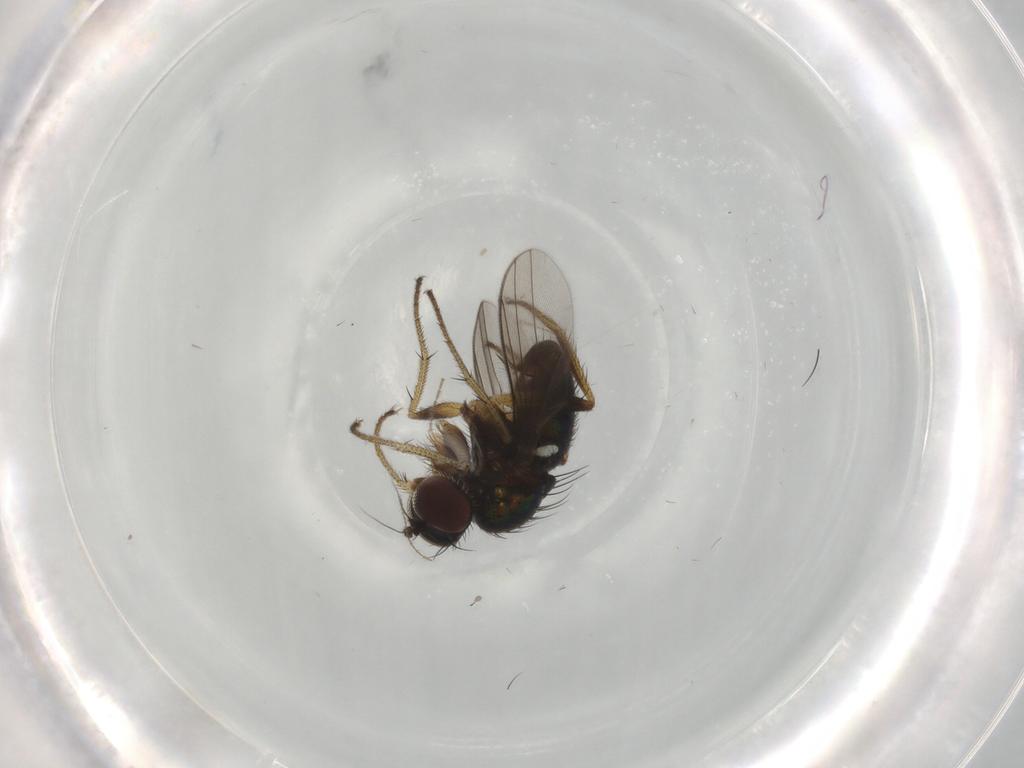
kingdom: Animalia
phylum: Arthropoda
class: Insecta
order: Diptera
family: Dolichopodidae
